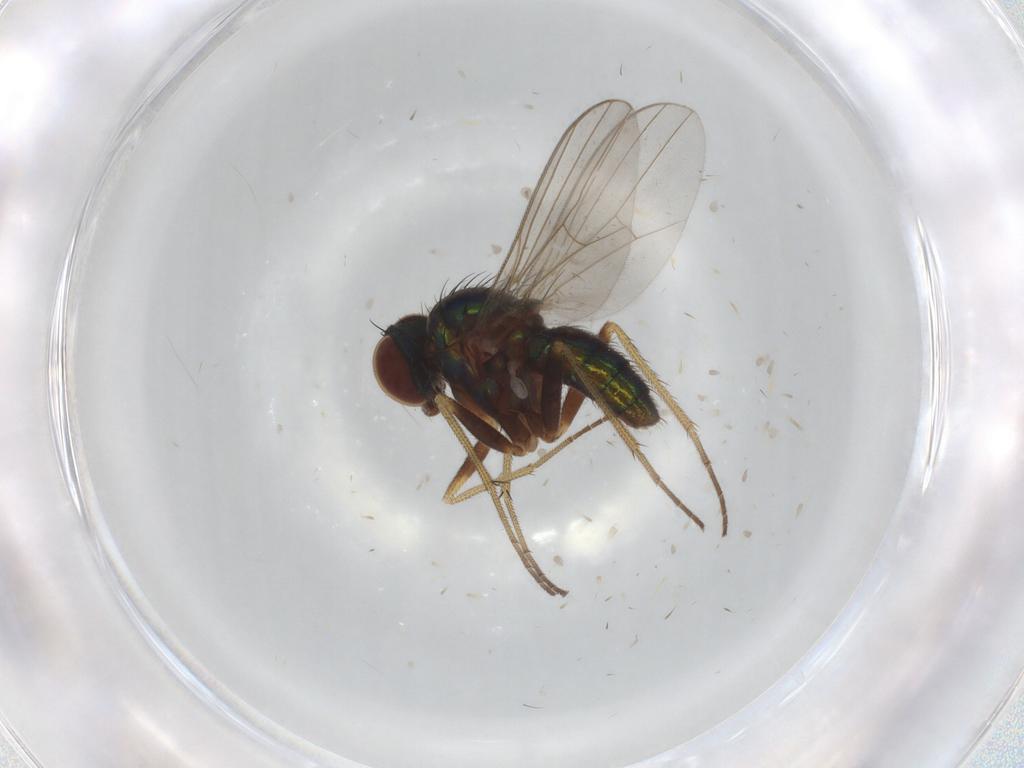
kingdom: Animalia
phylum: Arthropoda
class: Insecta
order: Diptera
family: Dolichopodidae
